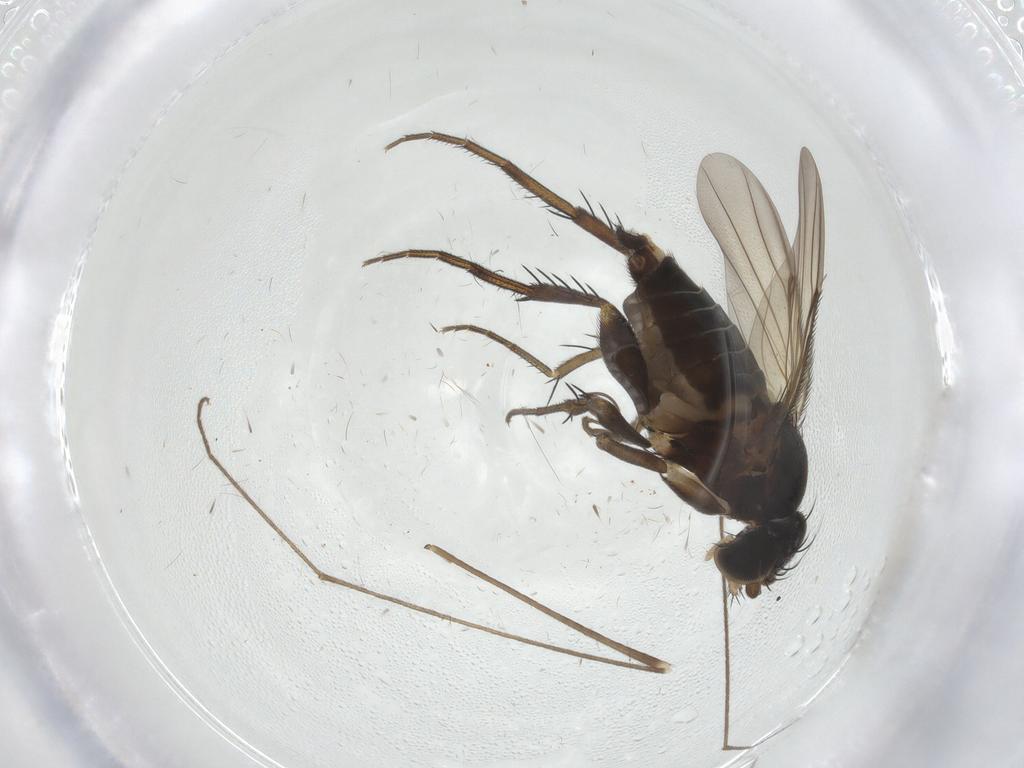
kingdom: Animalia
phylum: Arthropoda
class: Insecta
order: Diptera
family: Phoridae
